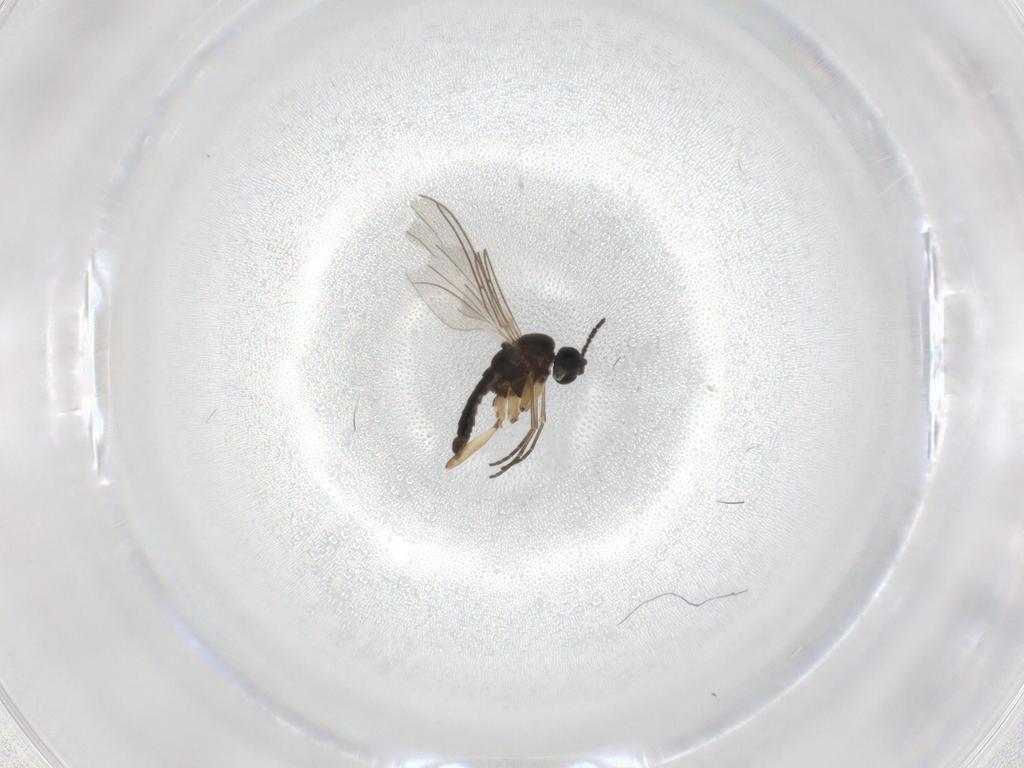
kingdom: Animalia
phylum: Arthropoda
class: Insecta
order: Diptera
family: Sciaridae
